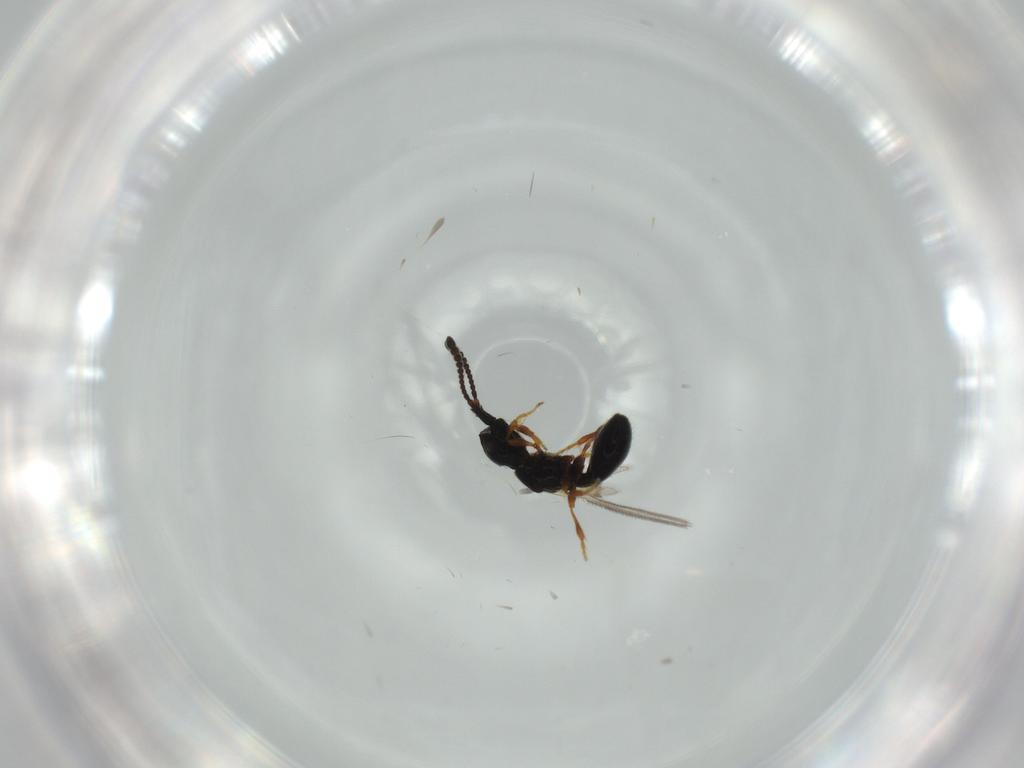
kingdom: Animalia
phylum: Arthropoda
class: Insecta
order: Hymenoptera
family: Diapriidae
